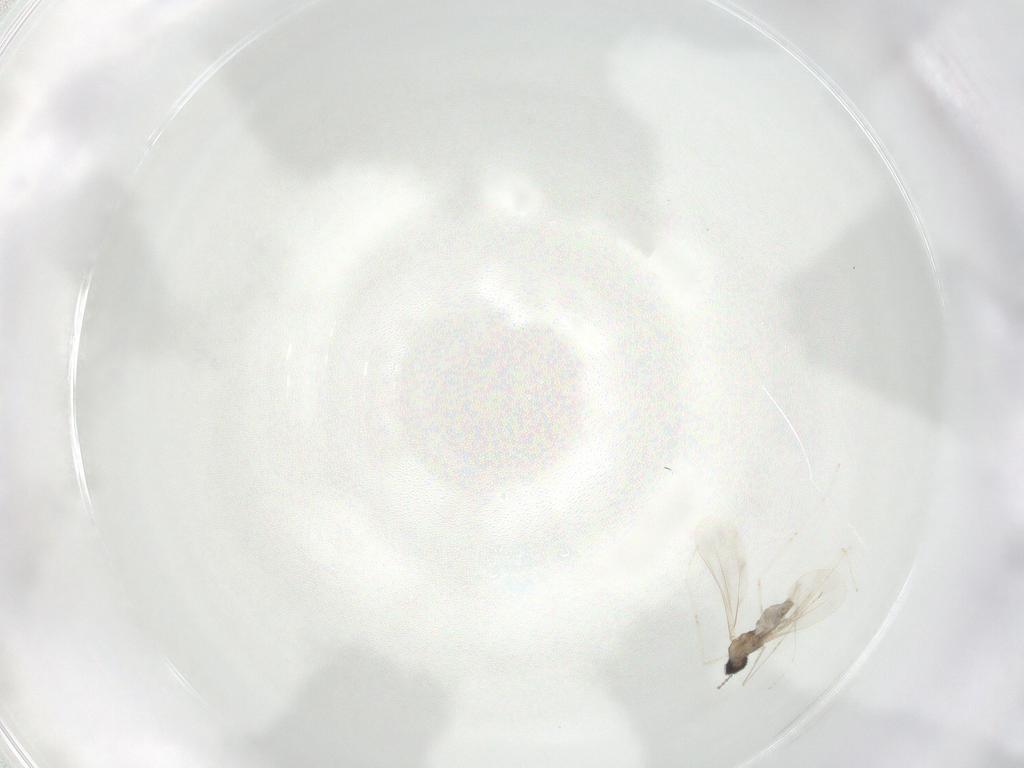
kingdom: Animalia
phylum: Arthropoda
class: Insecta
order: Diptera
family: Cecidomyiidae
